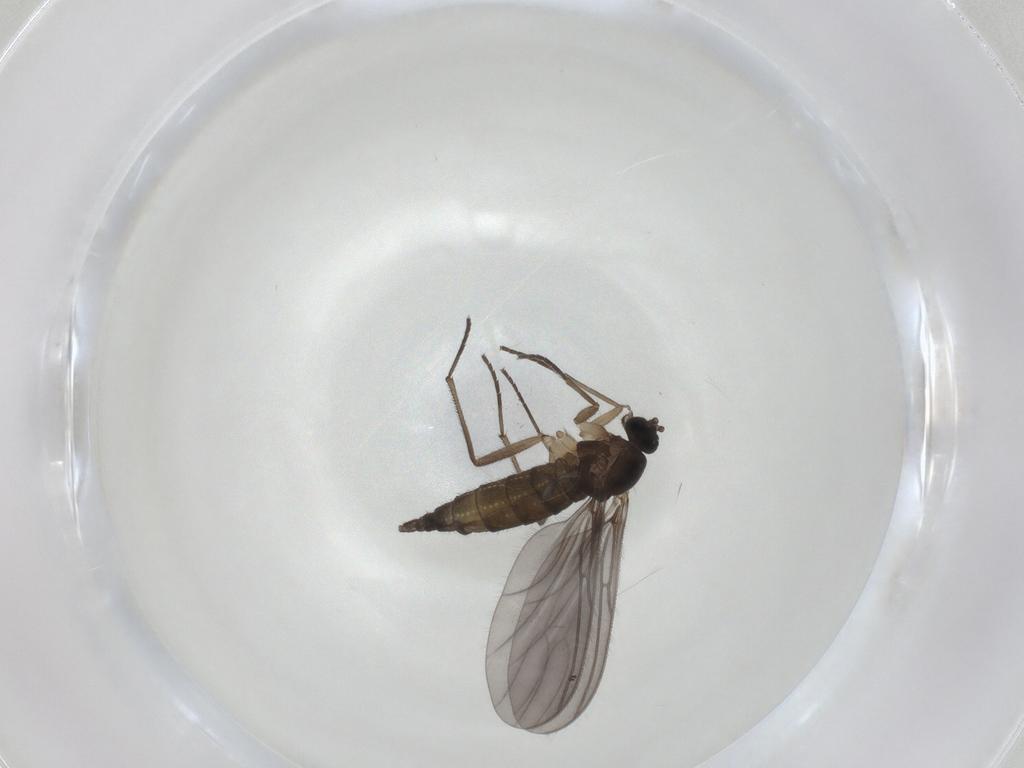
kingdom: Animalia
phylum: Arthropoda
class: Insecta
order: Diptera
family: Sciaridae
